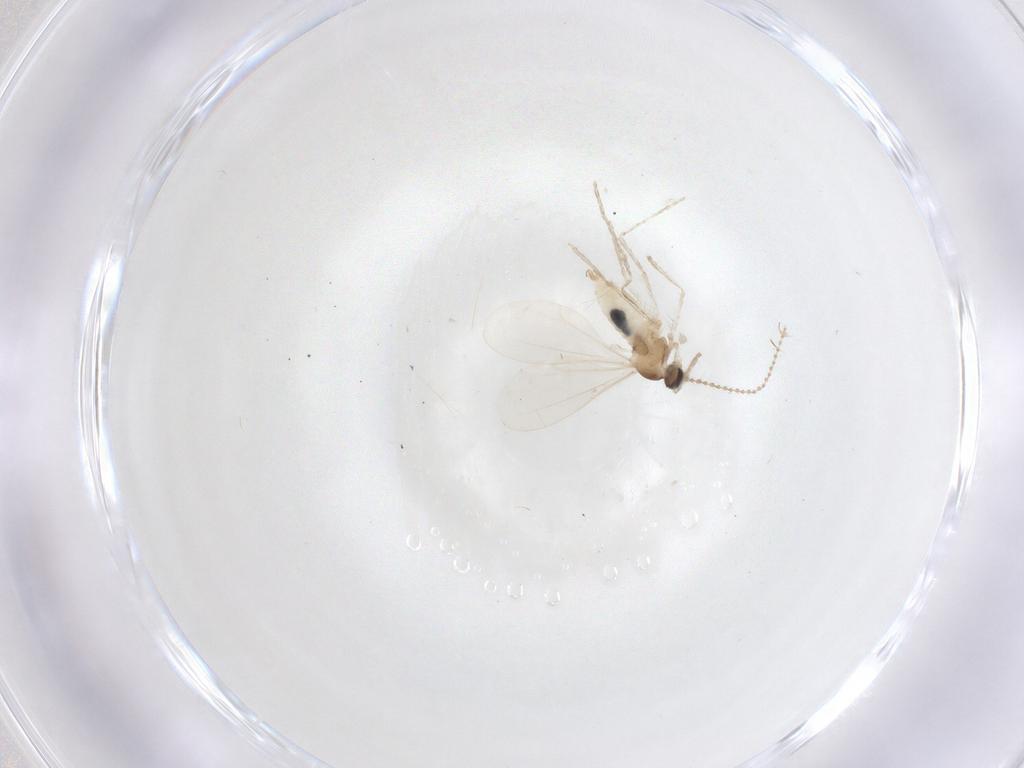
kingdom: Animalia
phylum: Arthropoda
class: Insecta
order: Diptera
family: Cecidomyiidae
